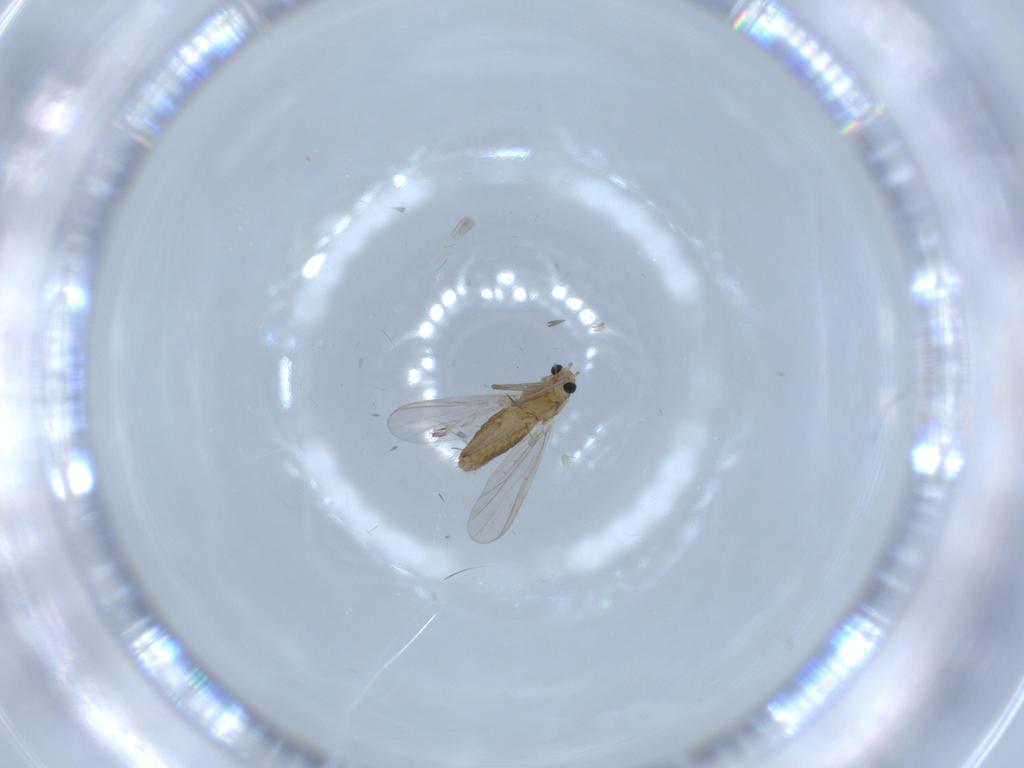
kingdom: Animalia
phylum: Arthropoda
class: Insecta
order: Diptera
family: Chironomidae
